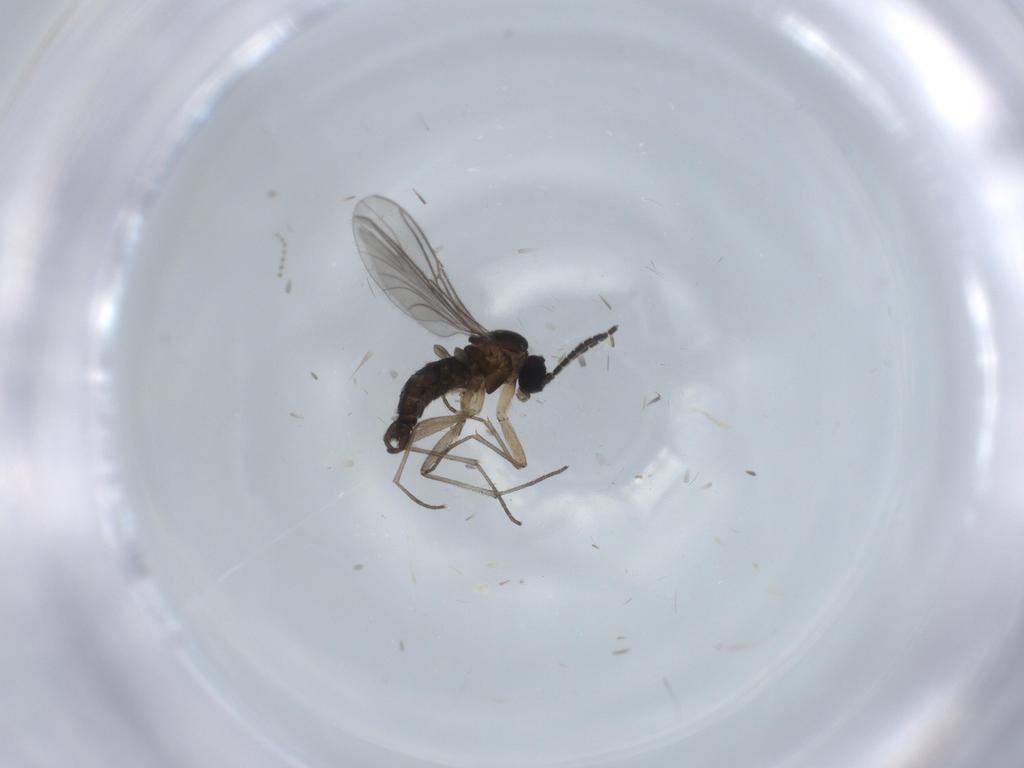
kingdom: Animalia
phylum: Arthropoda
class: Insecta
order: Diptera
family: Sciaridae
